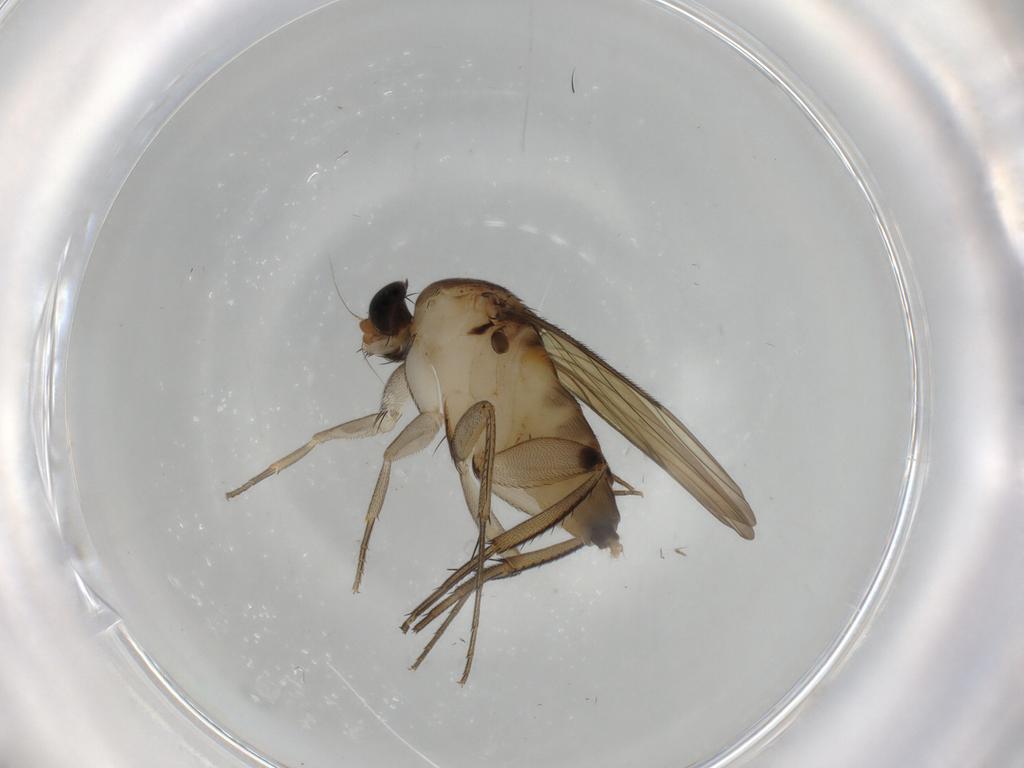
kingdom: Animalia
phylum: Arthropoda
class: Insecta
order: Diptera
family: Phoridae
